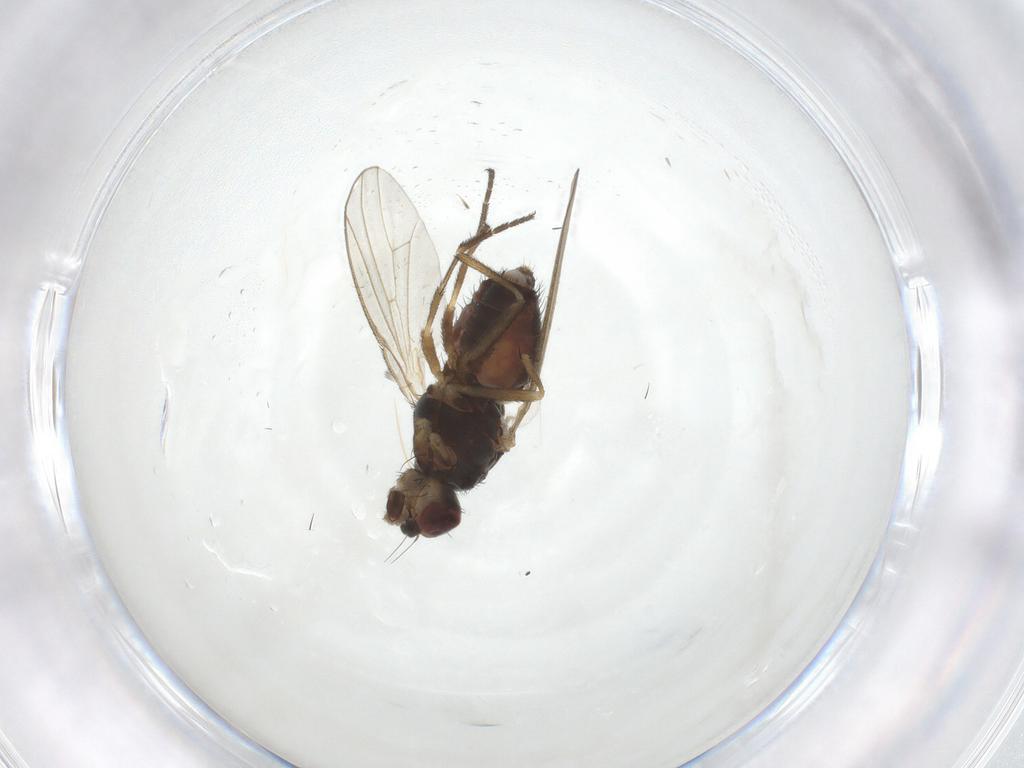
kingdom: Animalia
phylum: Arthropoda
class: Insecta
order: Diptera
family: Heleomyzidae
